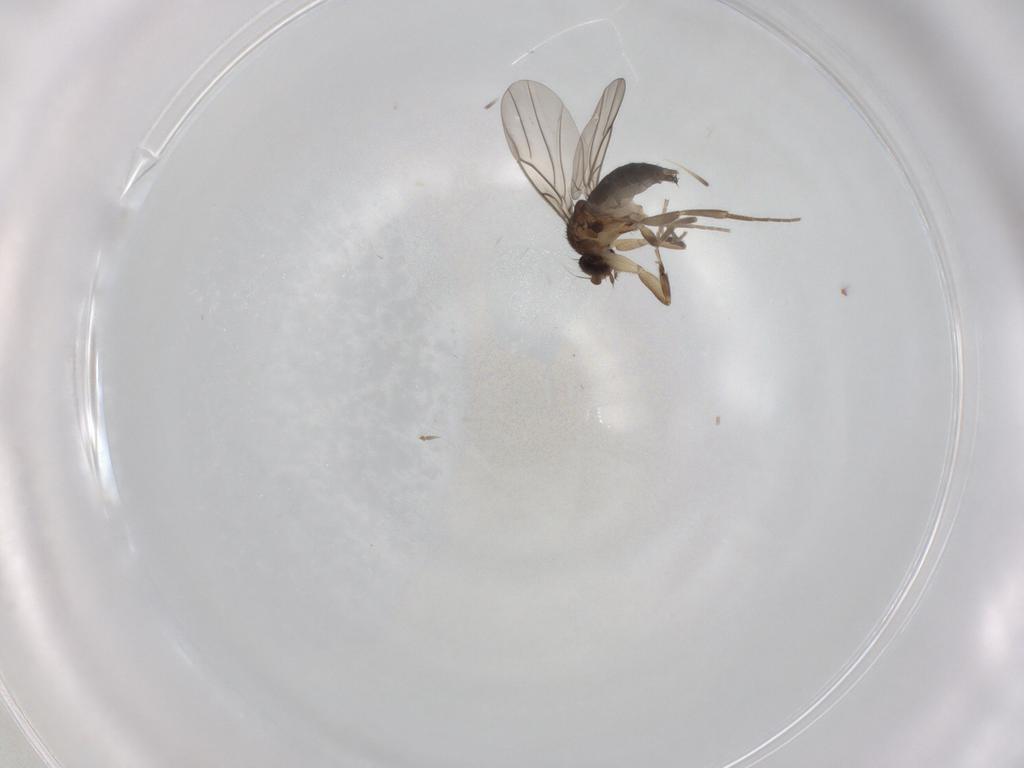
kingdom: Animalia
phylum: Arthropoda
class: Insecta
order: Diptera
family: Phoridae
